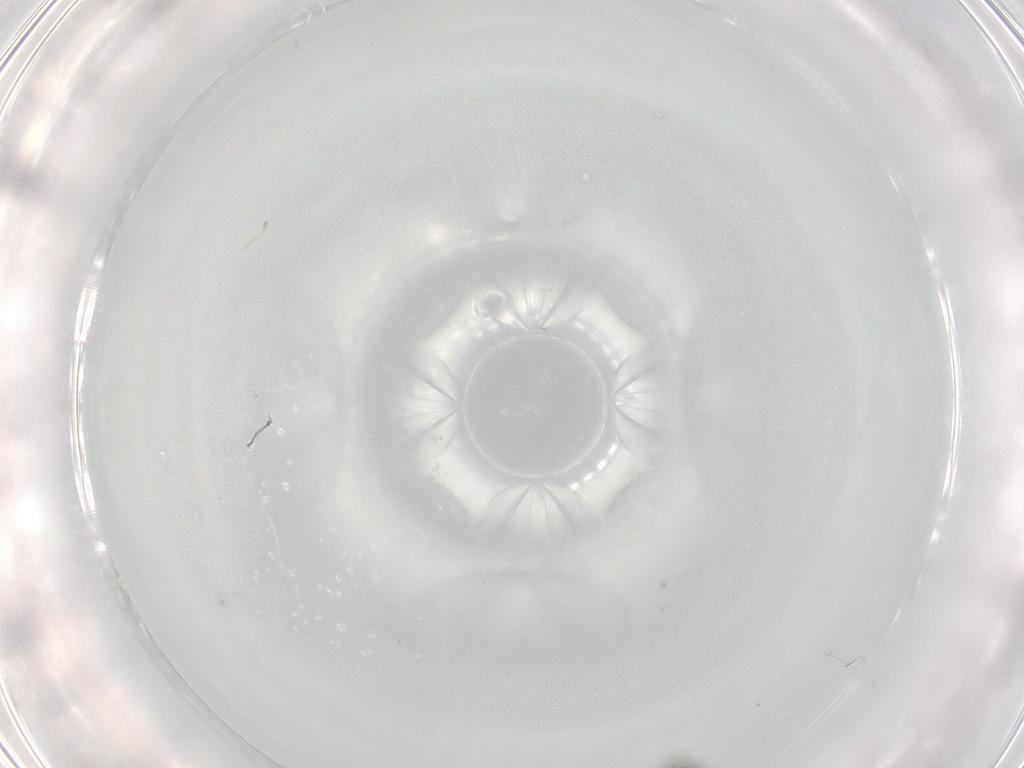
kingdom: Animalia
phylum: Arthropoda
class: Insecta
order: Diptera
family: Ceratopogonidae
